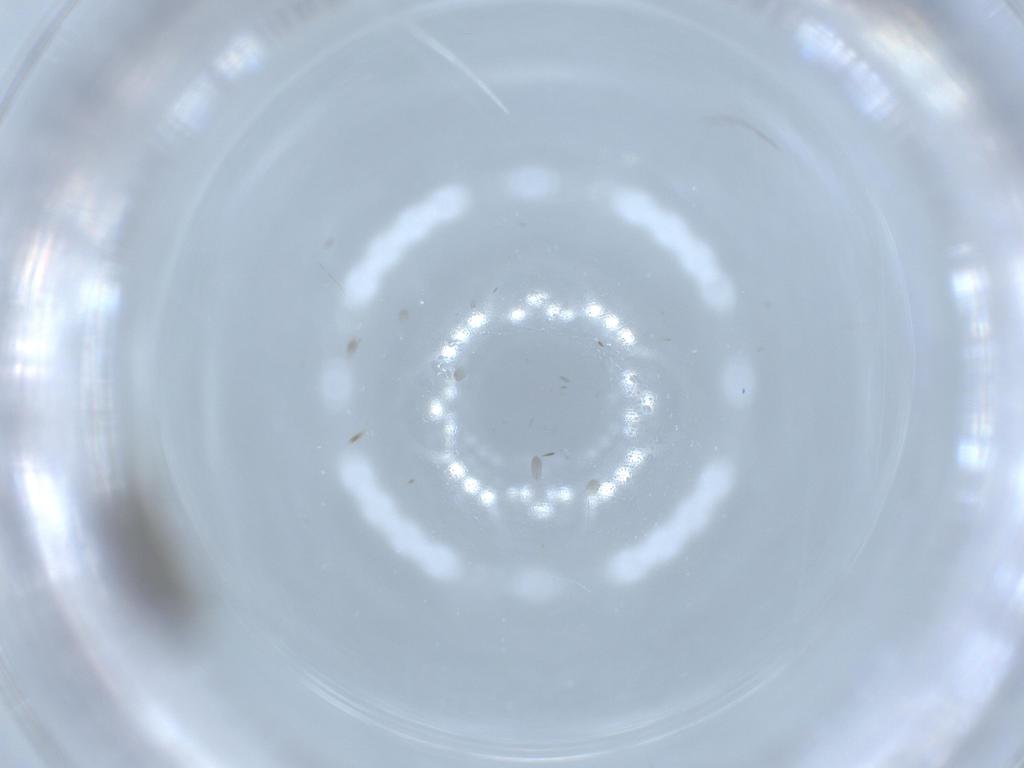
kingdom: Animalia
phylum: Arthropoda
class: Insecta
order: Hymenoptera
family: Scelionidae
